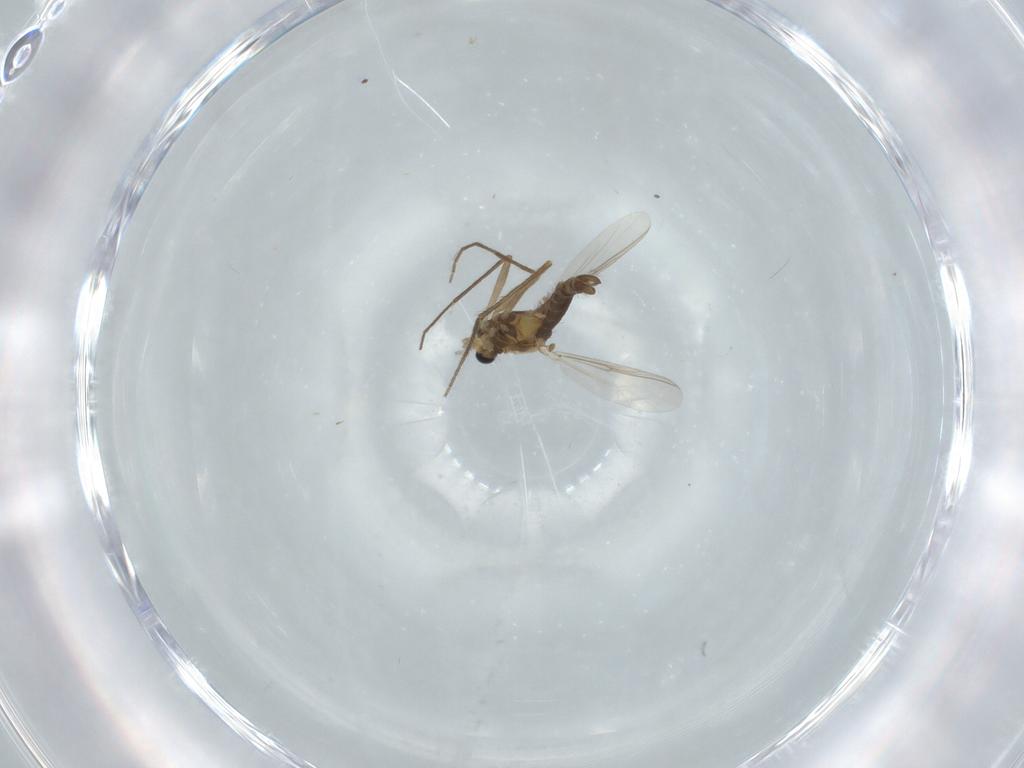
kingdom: Animalia
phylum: Arthropoda
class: Insecta
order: Diptera
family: Chironomidae
